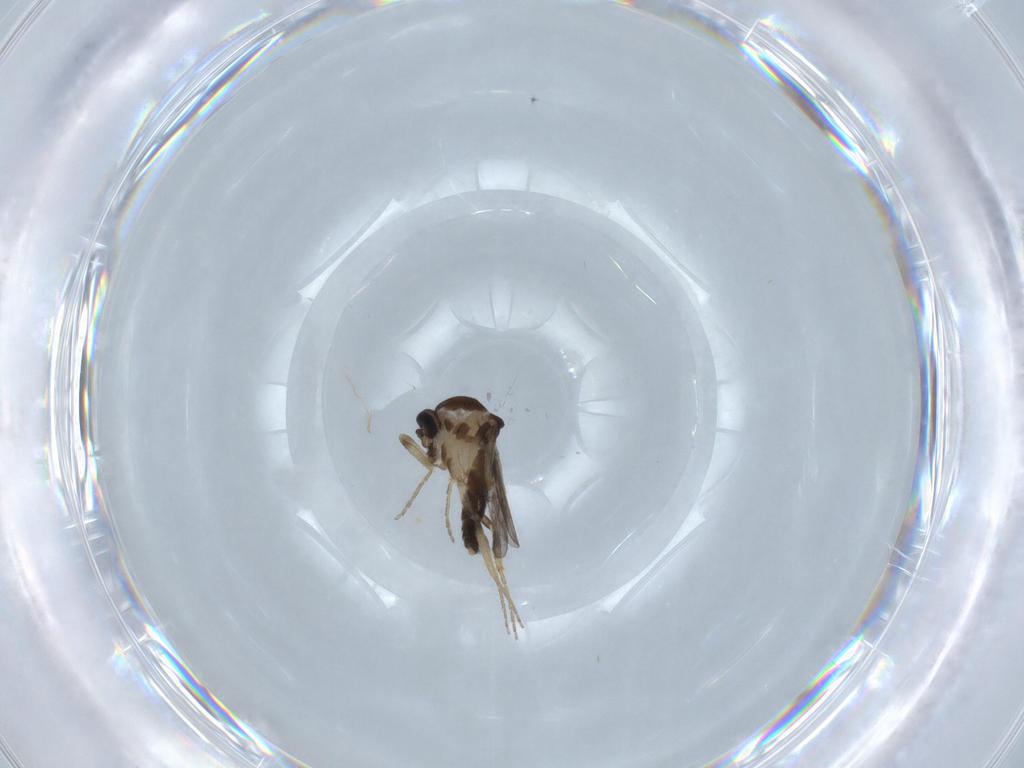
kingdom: Animalia
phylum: Arthropoda
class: Insecta
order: Diptera
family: Ceratopogonidae
